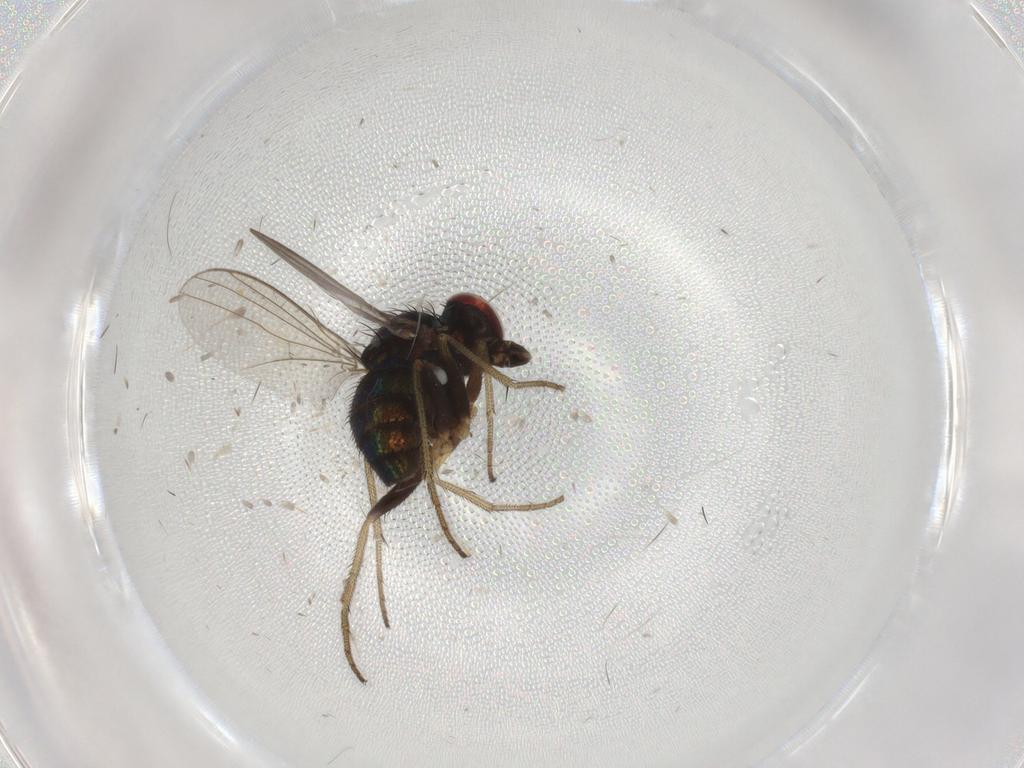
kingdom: Animalia
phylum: Arthropoda
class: Insecta
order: Diptera
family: Dolichopodidae
